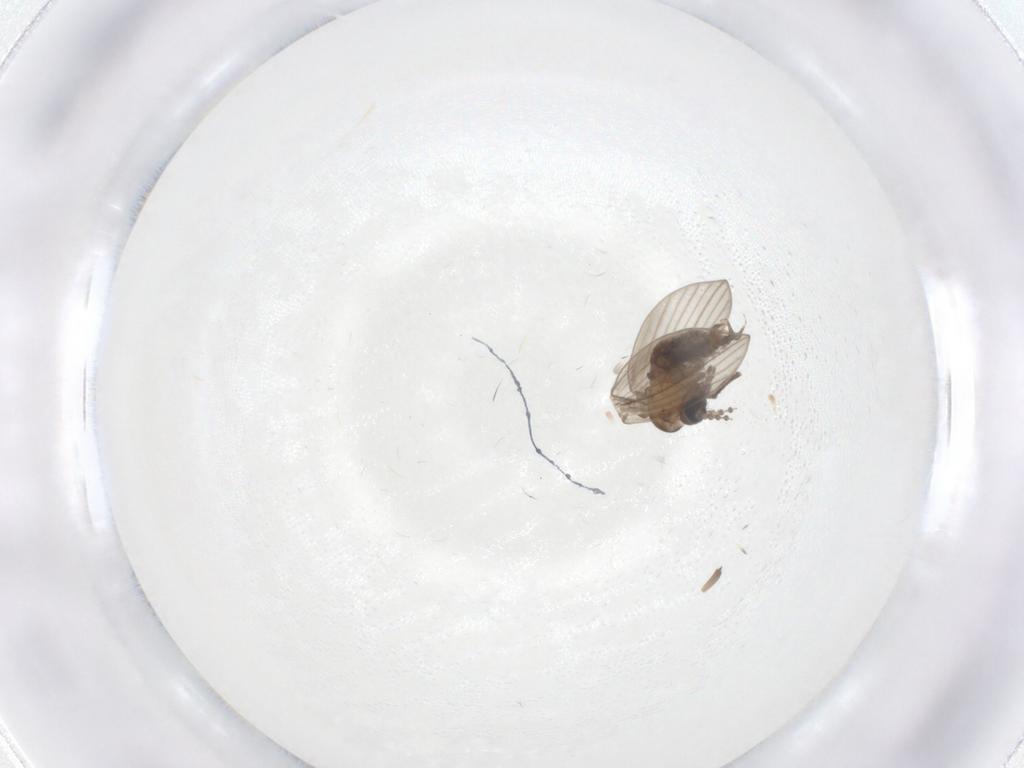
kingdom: Animalia
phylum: Arthropoda
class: Insecta
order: Diptera
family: Psychodidae
